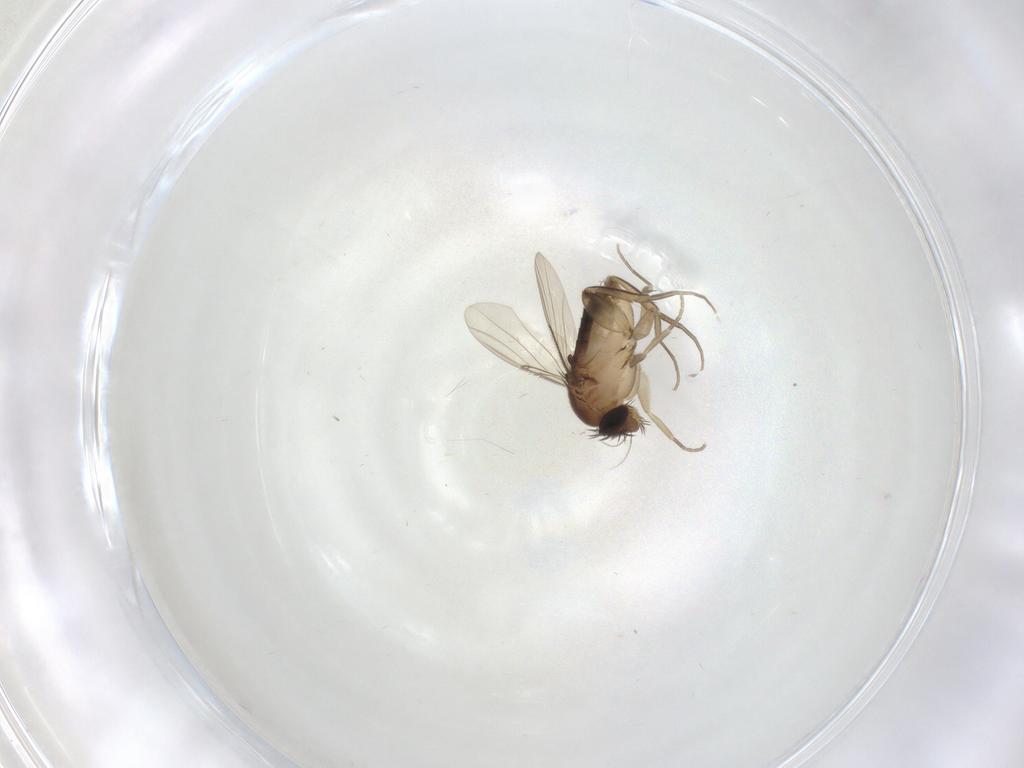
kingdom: Animalia
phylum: Arthropoda
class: Insecta
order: Diptera
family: Phoridae
